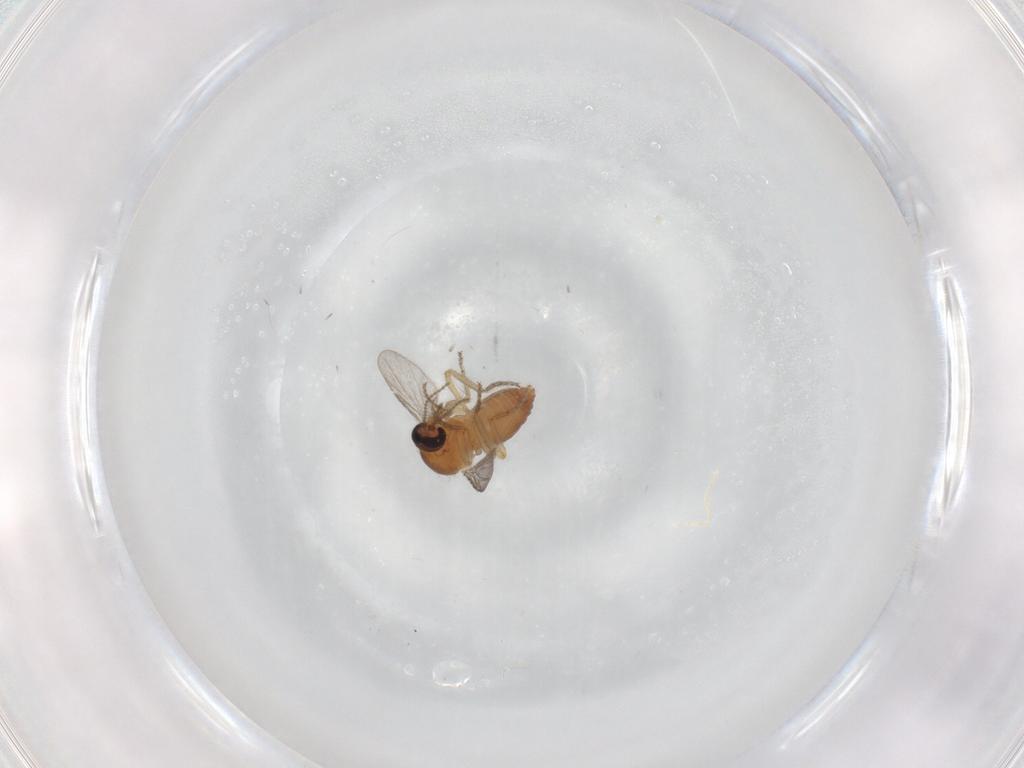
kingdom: Animalia
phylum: Arthropoda
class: Insecta
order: Diptera
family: Ceratopogonidae
